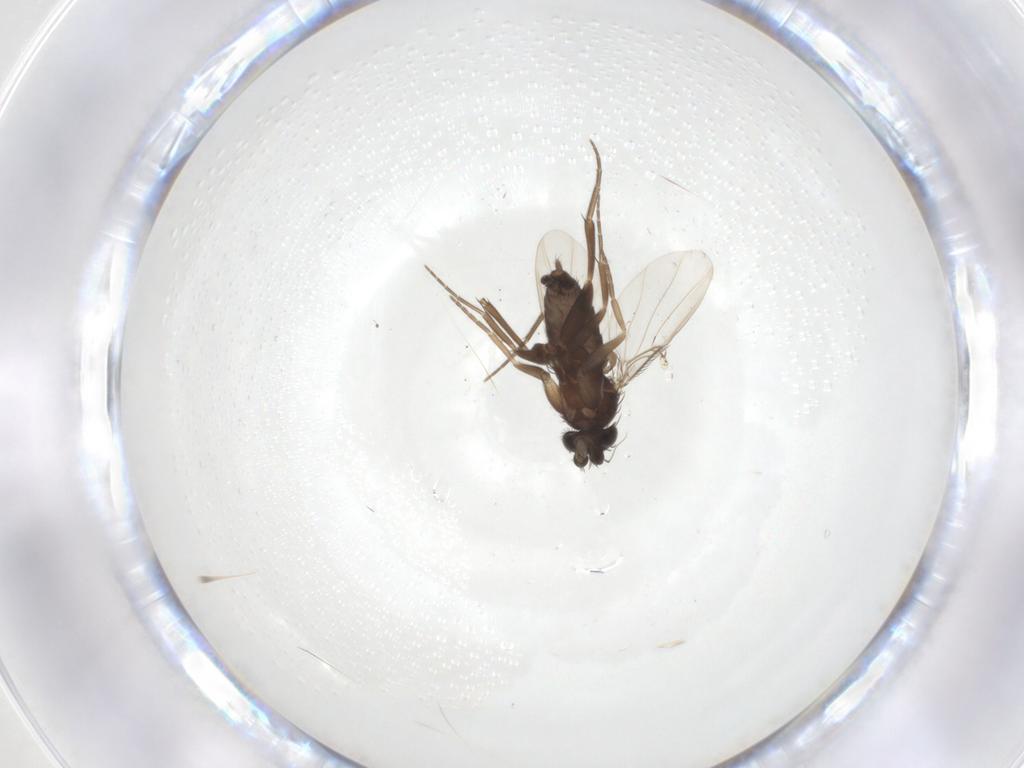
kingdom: Animalia
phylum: Arthropoda
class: Insecta
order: Diptera
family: Phoridae
